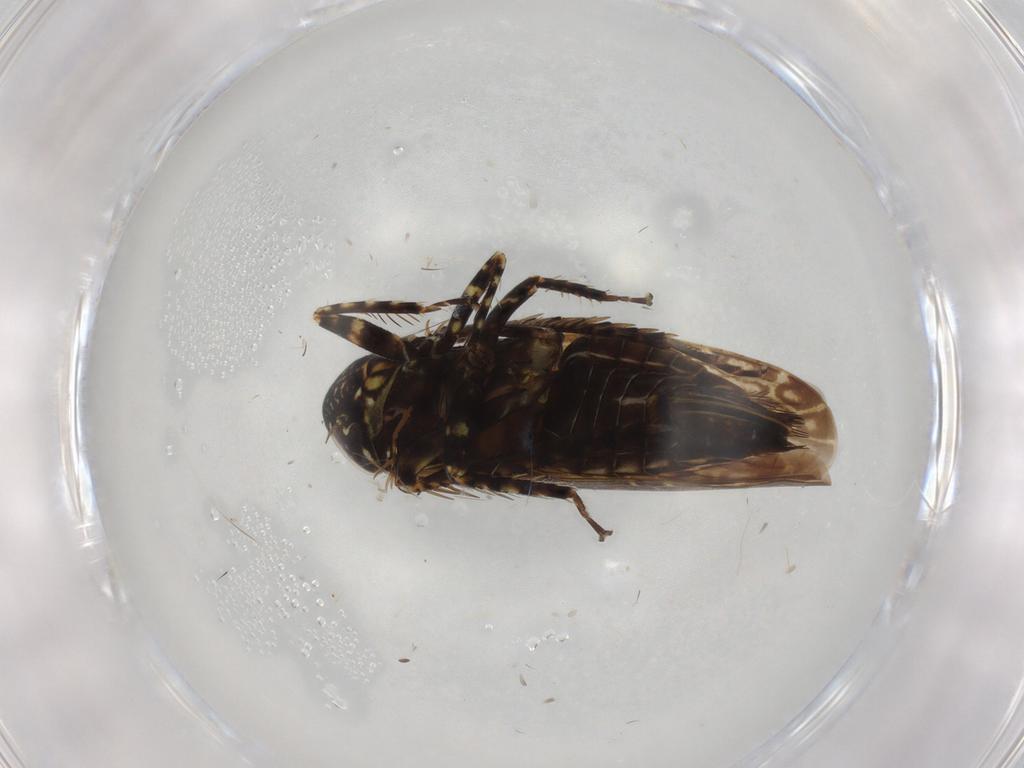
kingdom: Animalia
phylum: Arthropoda
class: Insecta
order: Hemiptera
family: Cicadellidae
